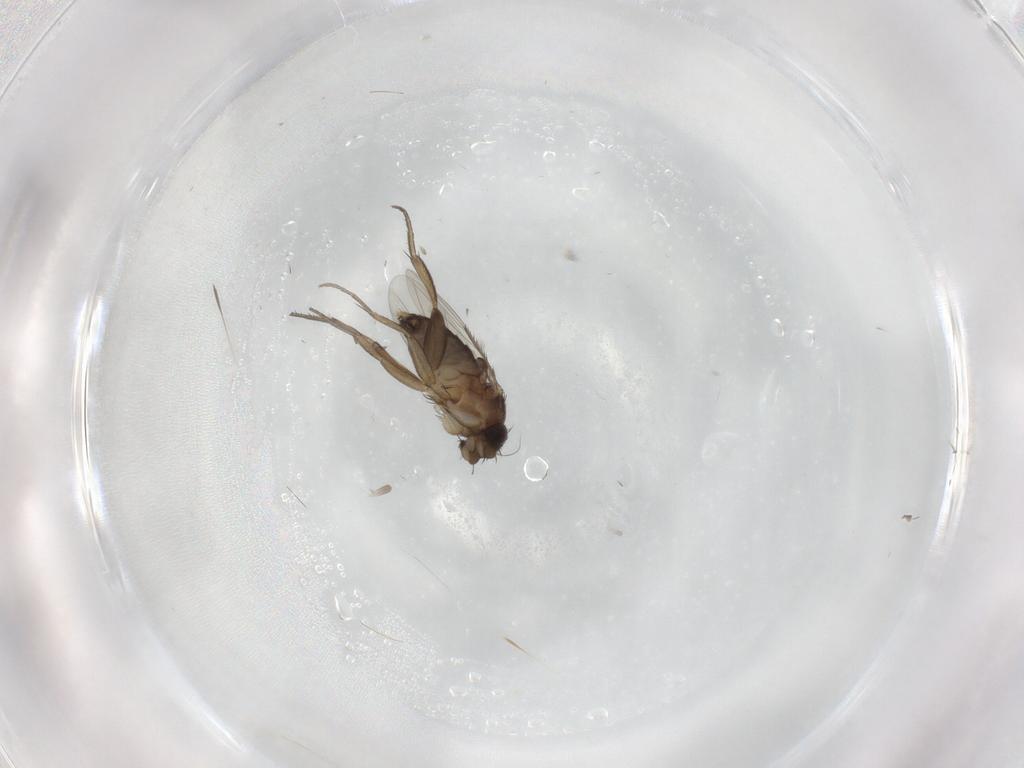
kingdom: Animalia
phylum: Arthropoda
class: Insecta
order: Diptera
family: Phoridae
